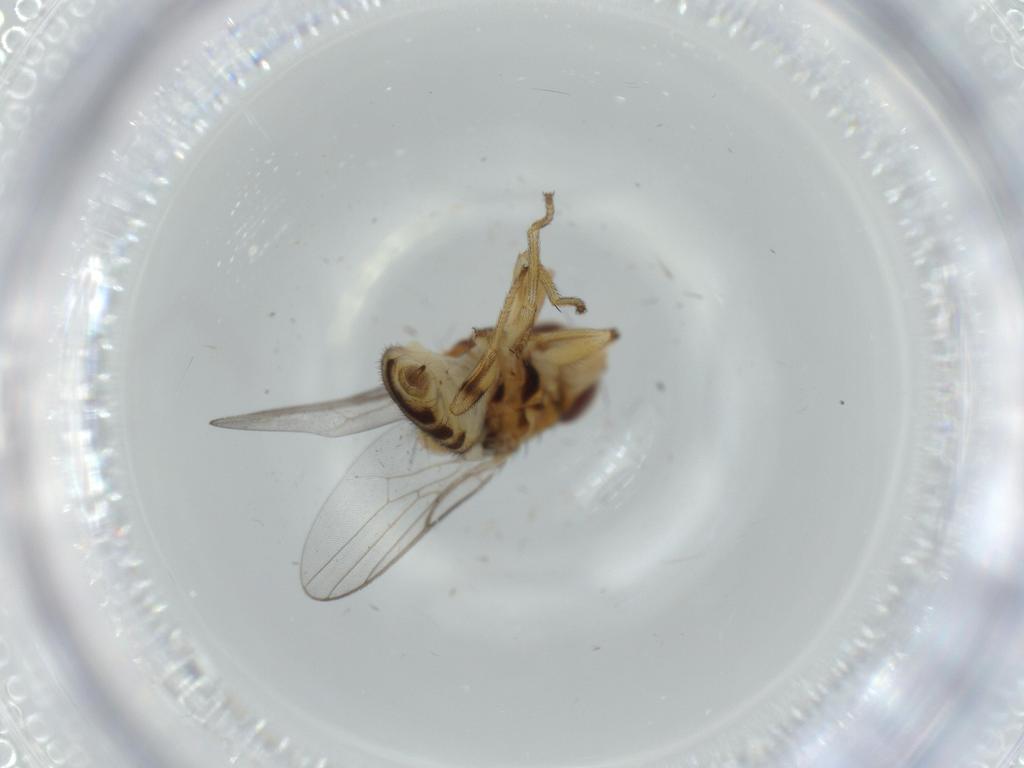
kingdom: Animalia
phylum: Arthropoda
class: Insecta
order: Diptera
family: Chloropidae
